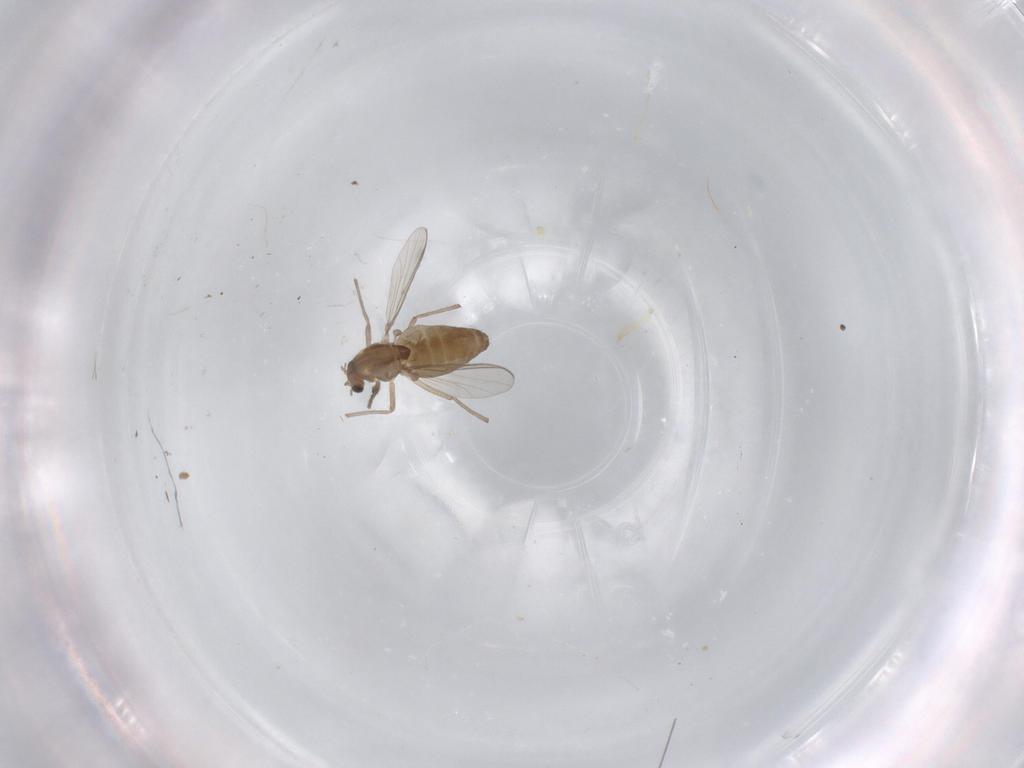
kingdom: Animalia
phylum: Arthropoda
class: Insecta
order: Diptera
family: Chironomidae
